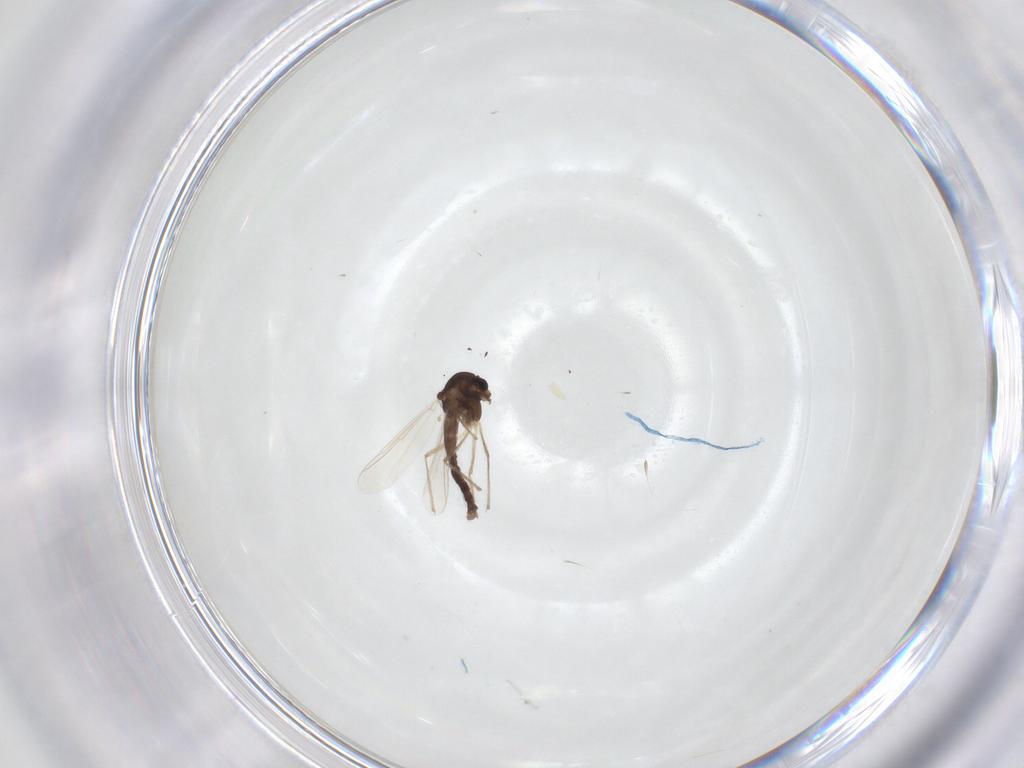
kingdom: Animalia
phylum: Arthropoda
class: Insecta
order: Diptera
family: Chironomidae
